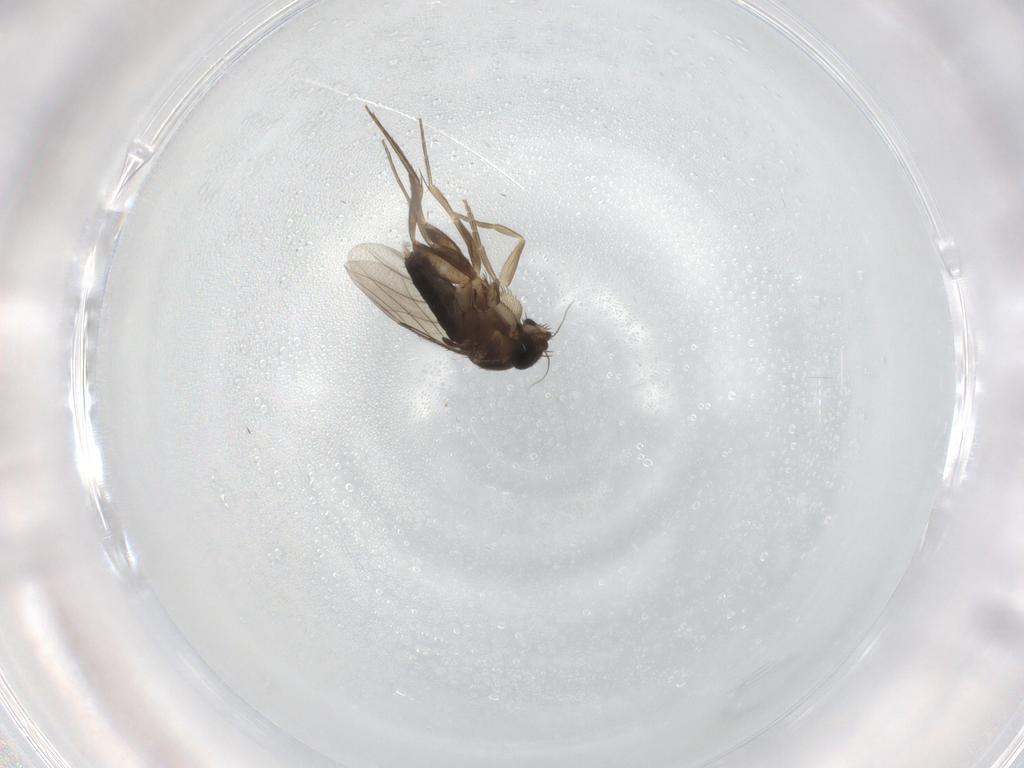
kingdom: Animalia
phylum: Arthropoda
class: Insecta
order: Diptera
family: Phoridae
